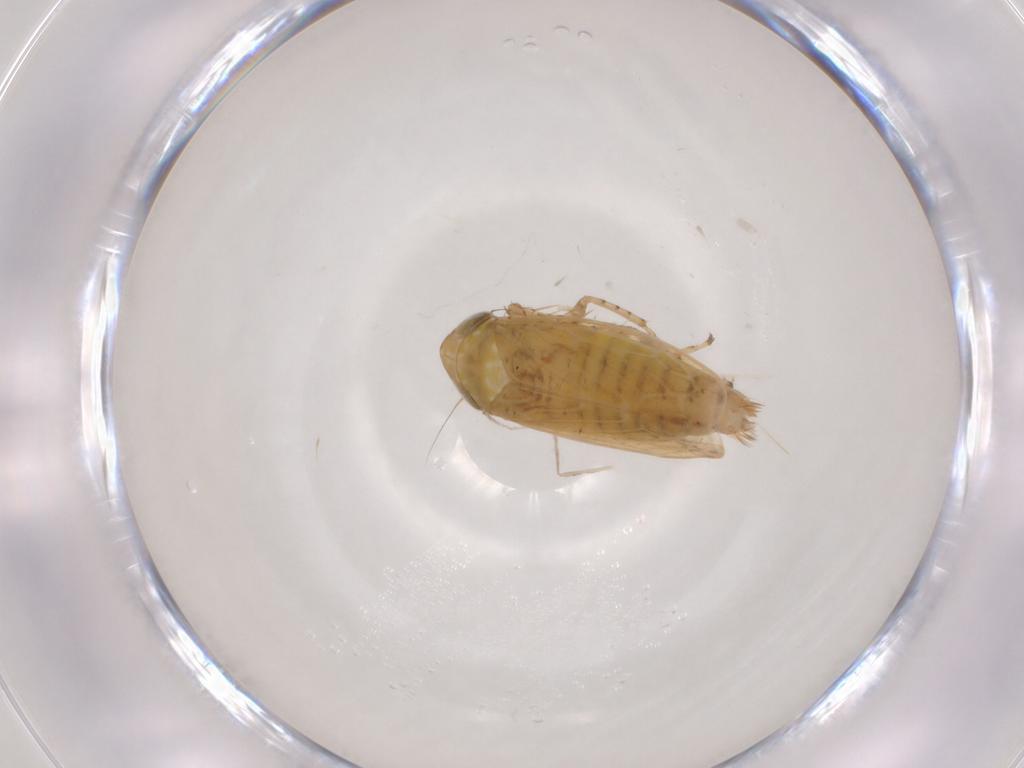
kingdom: Animalia
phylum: Arthropoda
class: Insecta
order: Hemiptera
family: Cicadellidae
